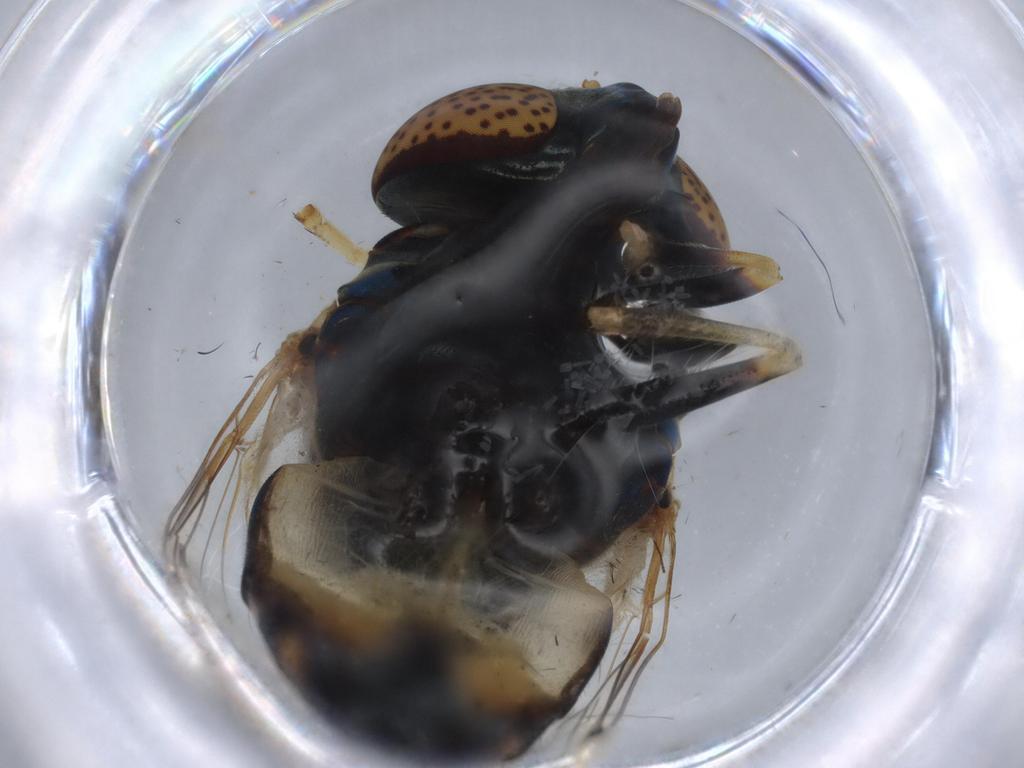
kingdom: Animalia
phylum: Arthropoda
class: Insecta
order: Diptera
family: Syrphidae
